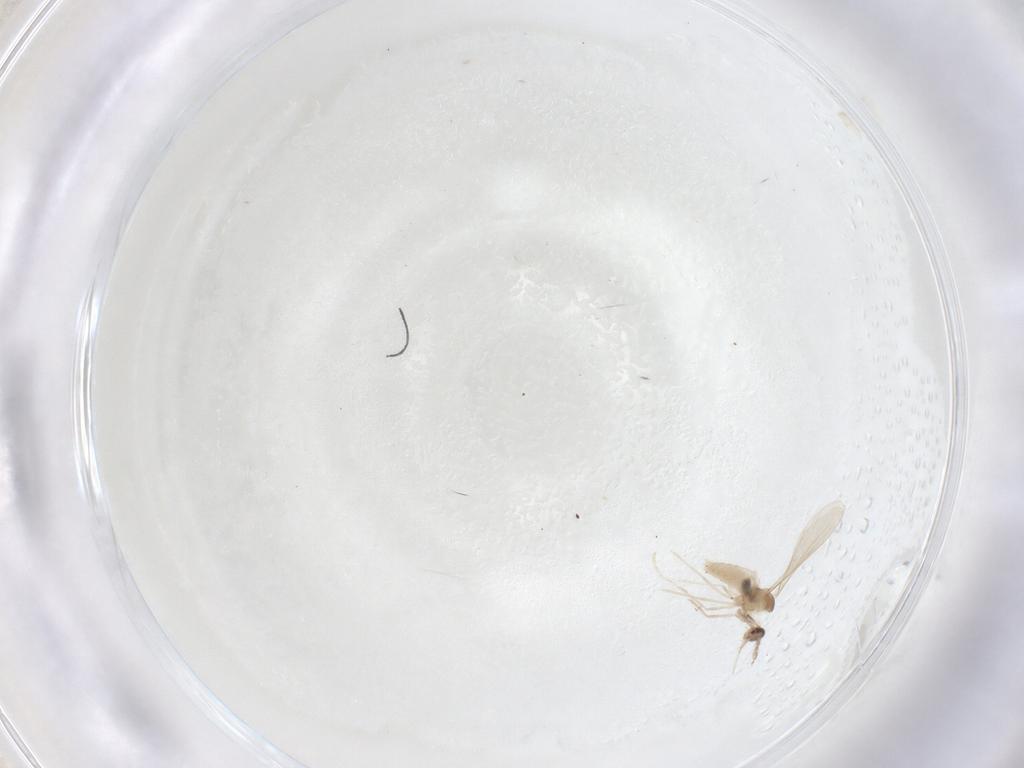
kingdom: Animalia
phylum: Arthropoda
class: Insecta
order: Diptera
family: Cecidomyiidae
